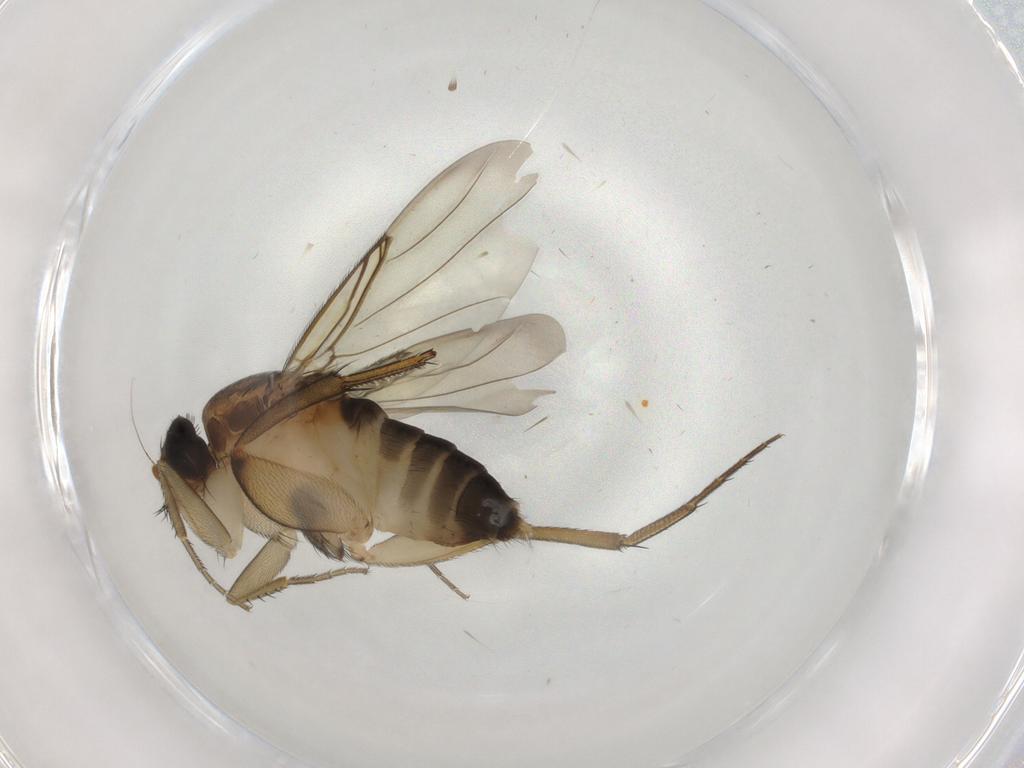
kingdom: Animalia
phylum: Arthropoda
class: Insecta
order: Diptera
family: Phoridae
